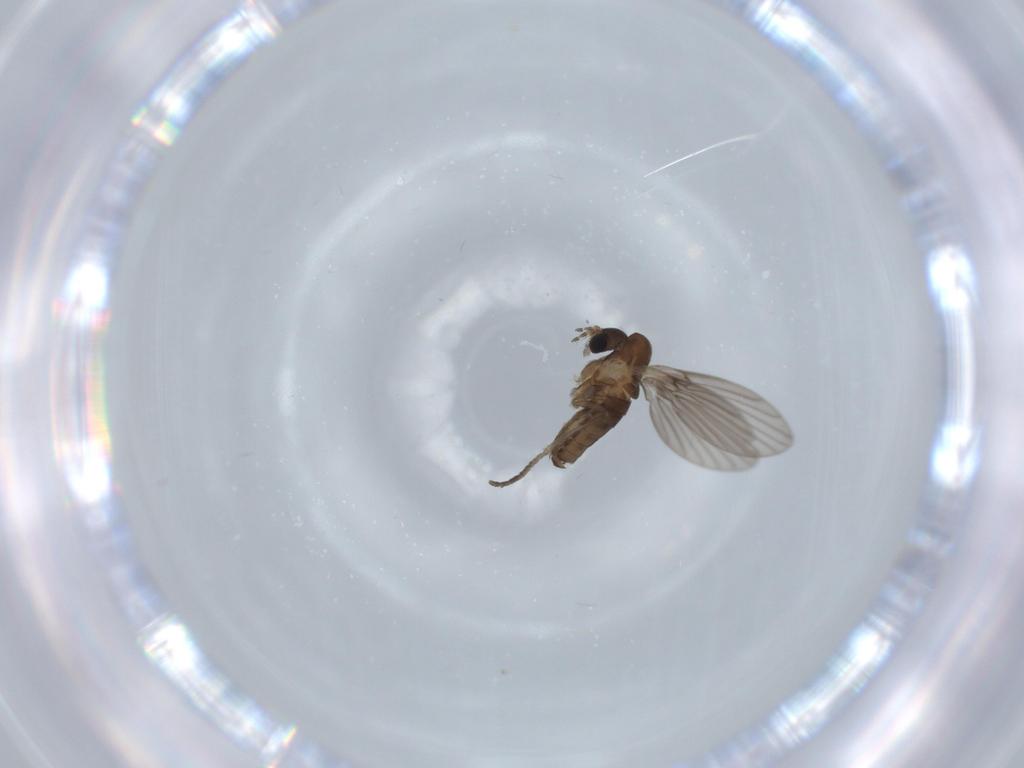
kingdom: Animalia
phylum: Arthropoda
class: Insecta
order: Diptera
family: Psychodidae
